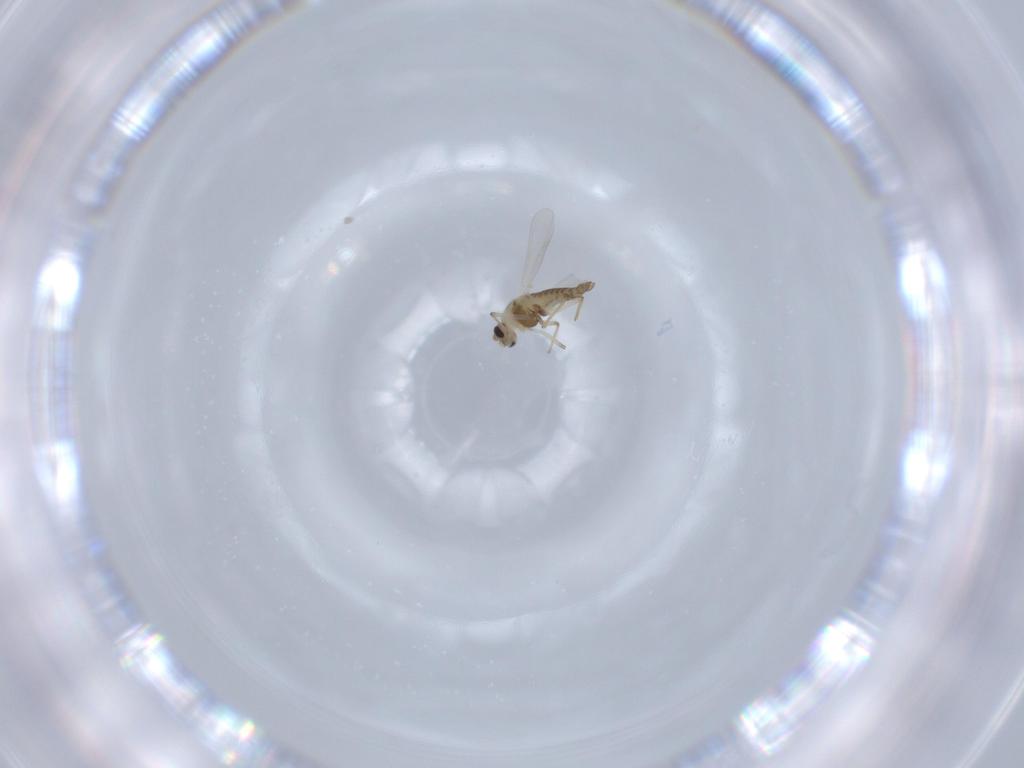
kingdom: Animalia
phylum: Arthropoda
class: Insecta
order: Diptera
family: Chironomidae
